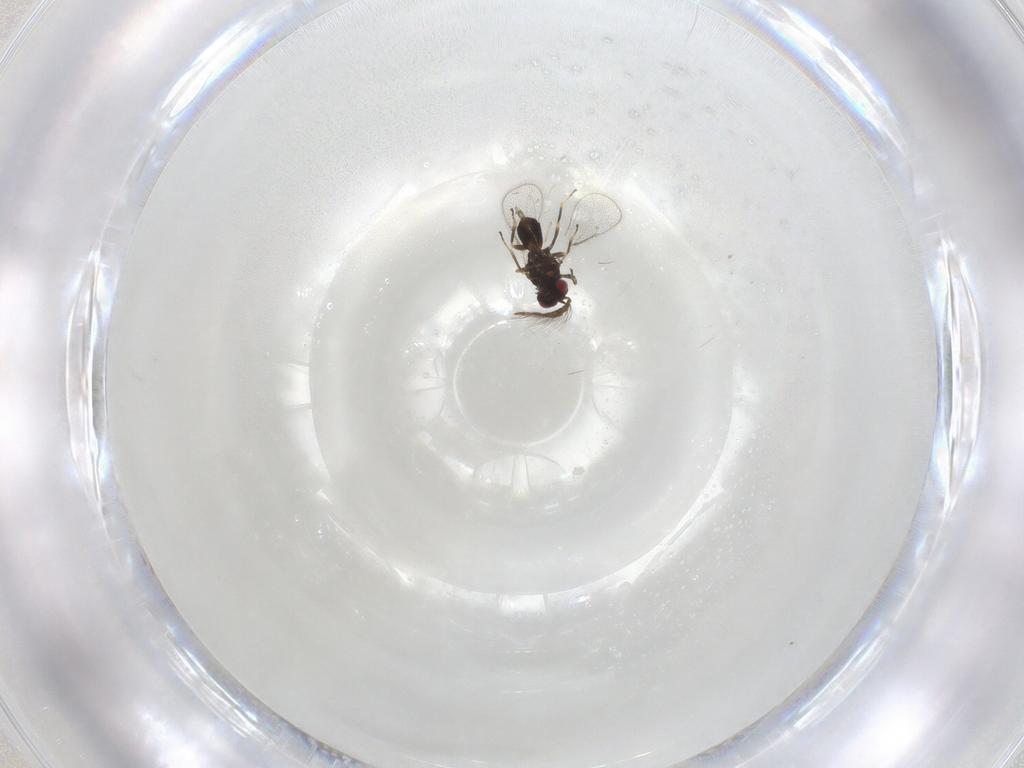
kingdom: Animalia
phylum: Arthropoda
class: Insecta
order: Hymenoptera
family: Eulophidae
